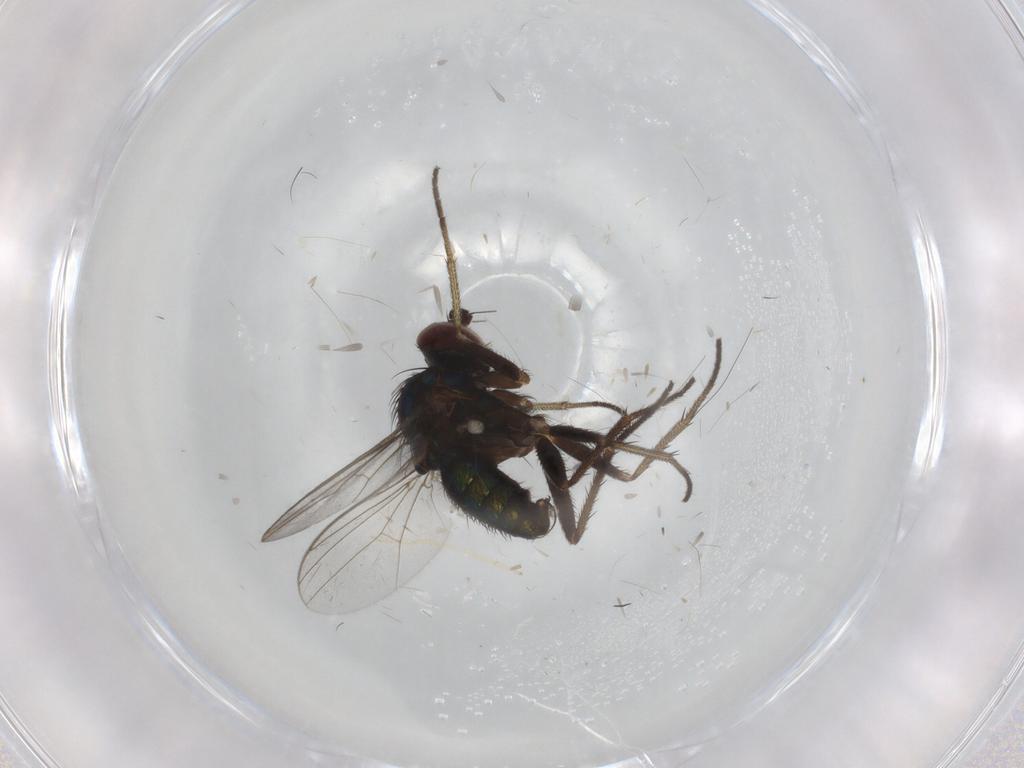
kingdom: Animalia
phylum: Arthropoda
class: Insecta
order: Diptera
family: Dolichopodidae
